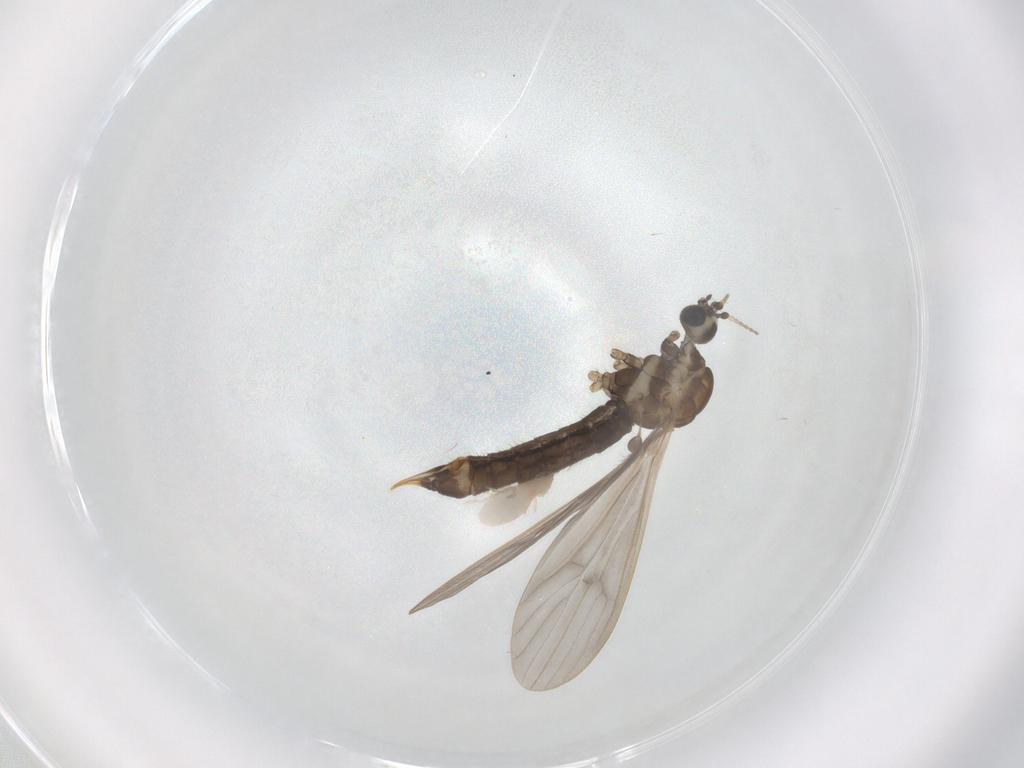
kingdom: Animalia
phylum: Arthropoda
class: Insecta
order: Diptera
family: Limoniidae
